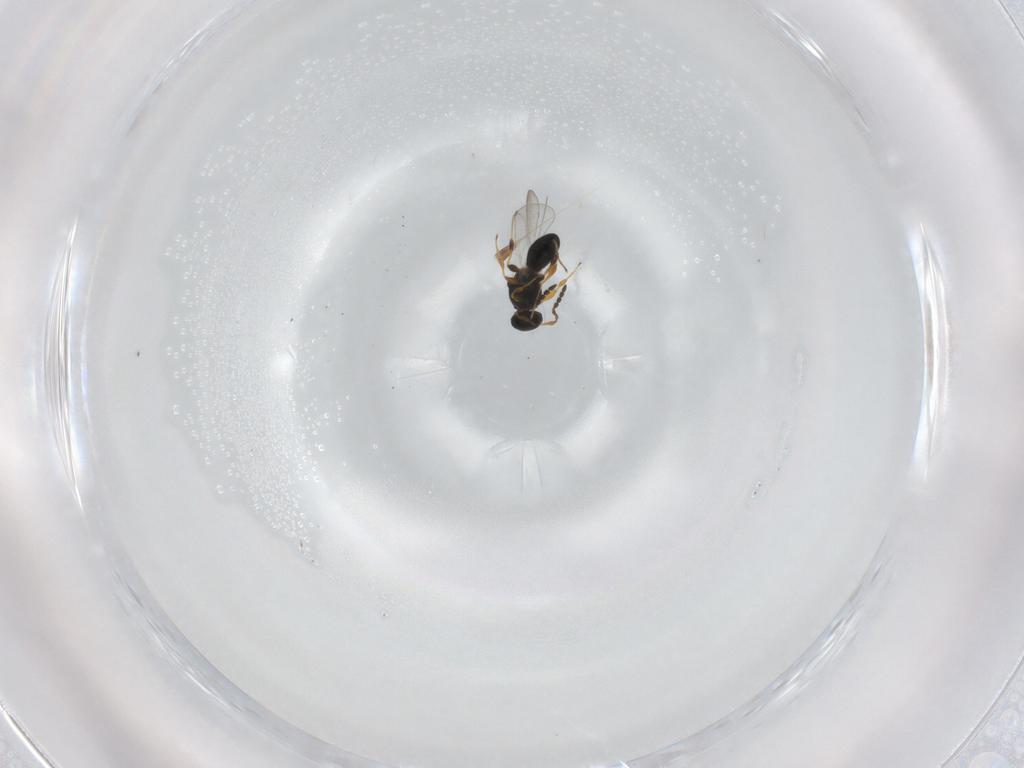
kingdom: Animalia
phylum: Arthropoda
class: Insecta
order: Hymenoptera
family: Platygastridae
